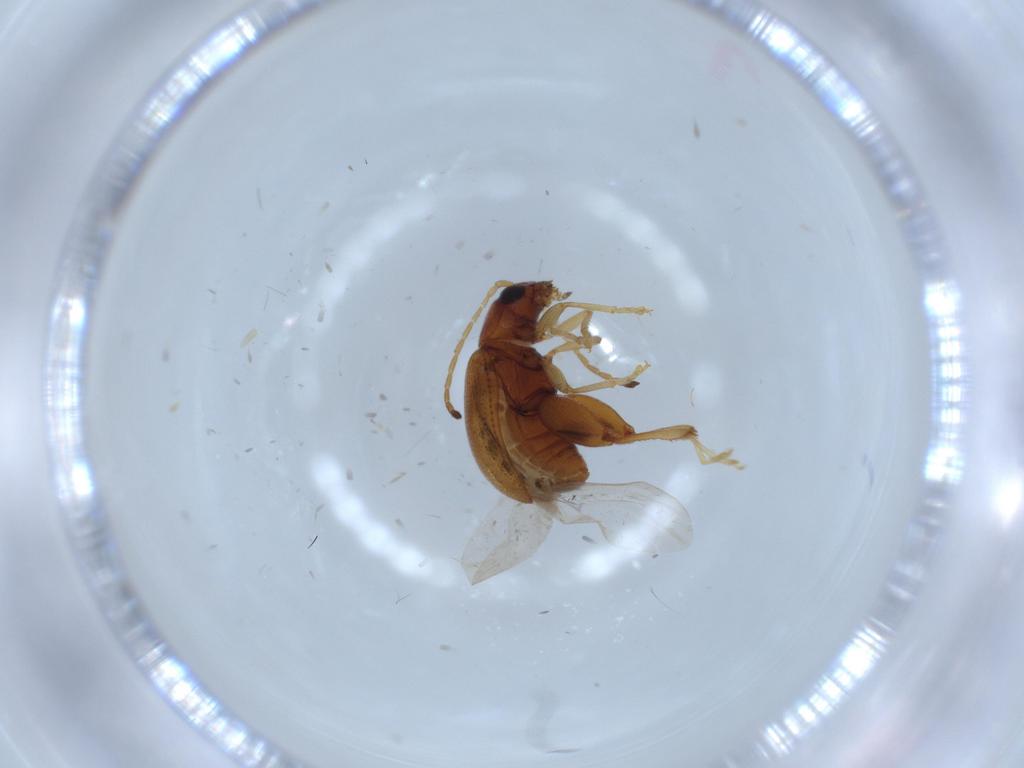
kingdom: Animalia
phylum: Arthropoda
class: Insecta
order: Coleoptera
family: Chrysomelidae
